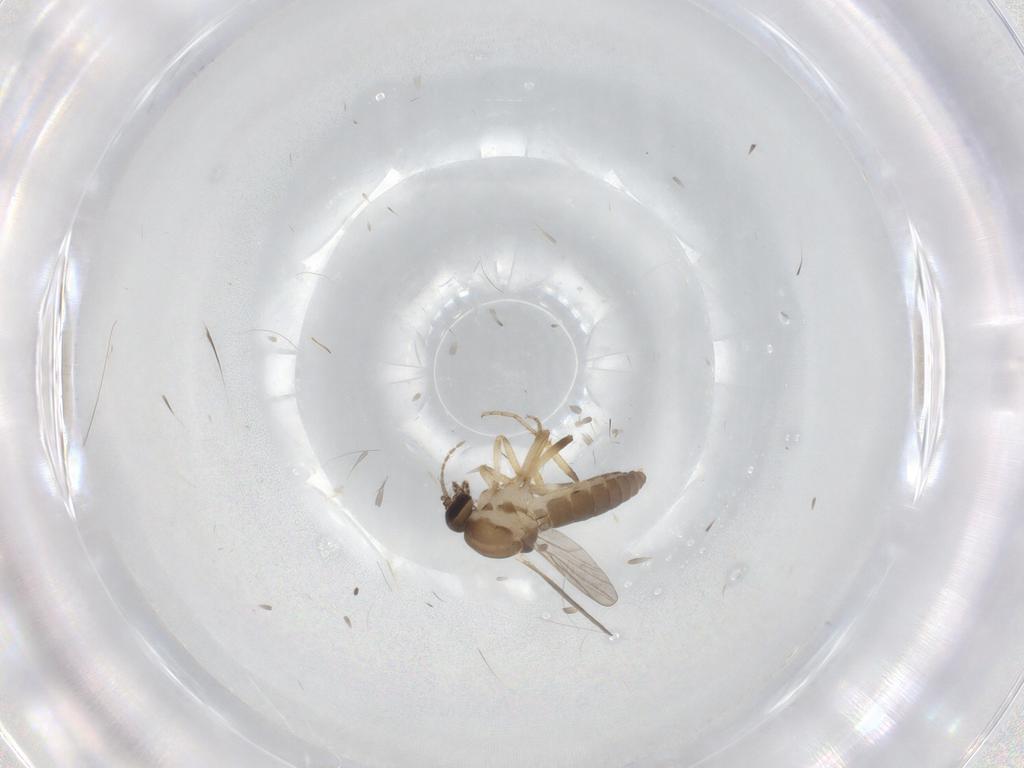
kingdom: Animalia
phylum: Arthropoda
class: Insecta
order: Diptera
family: Ceratopogonidae
